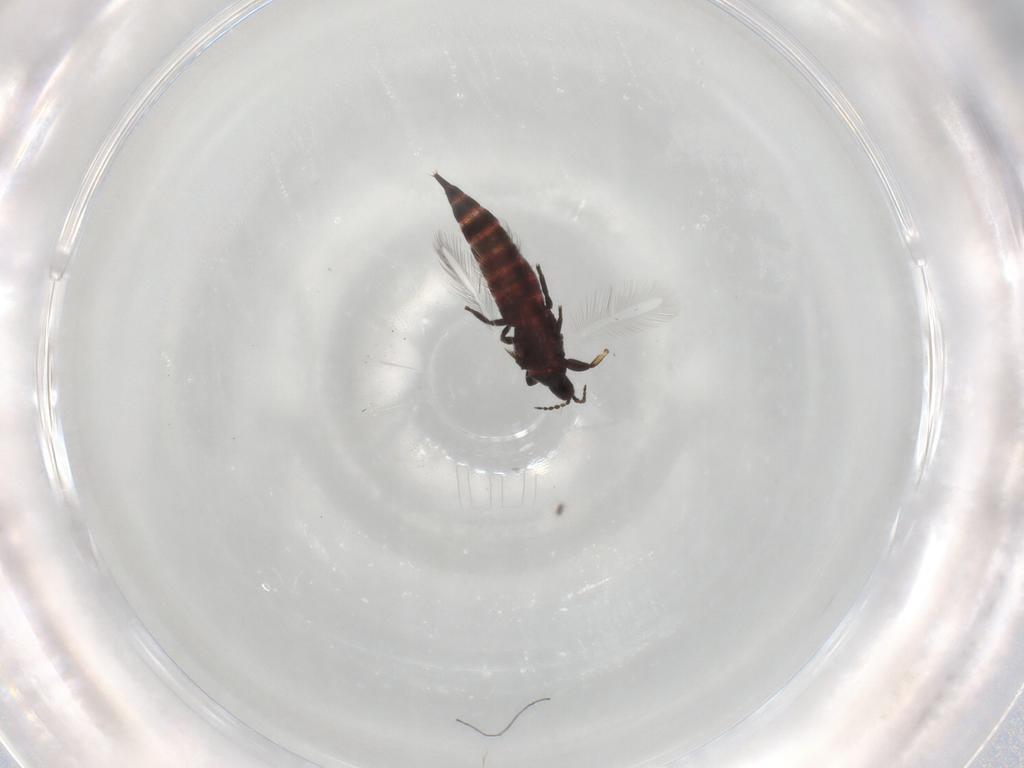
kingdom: Animalia
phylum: Arthropoda
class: Insecta
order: Thysanoptera
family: Phlaeothripidae
